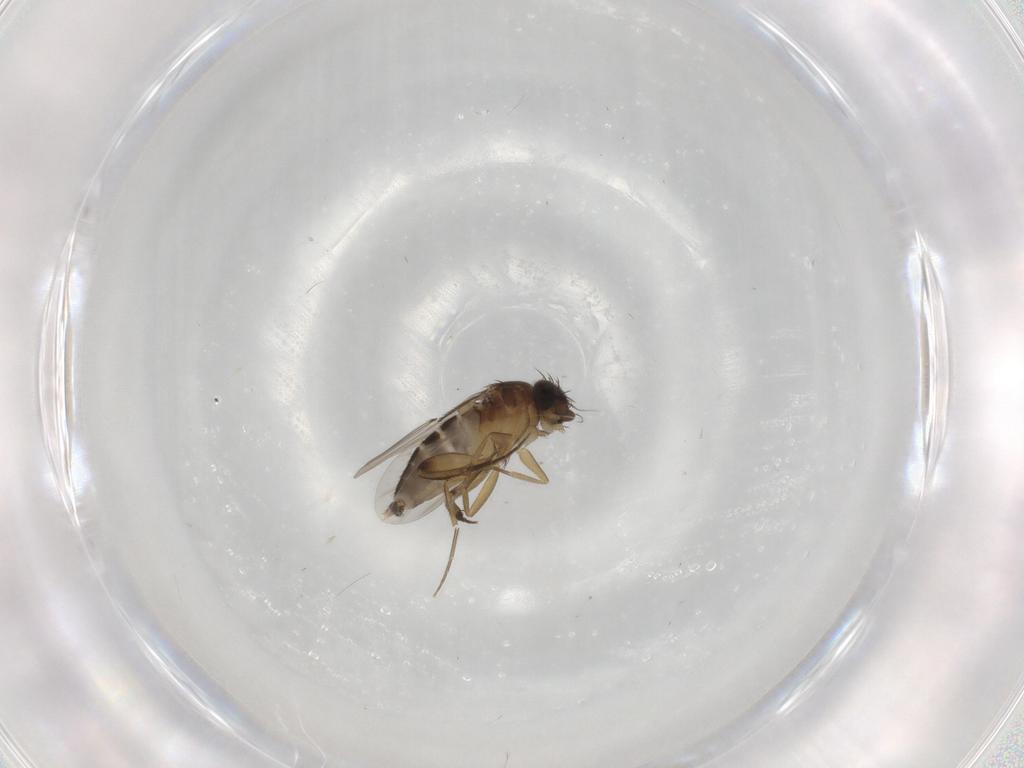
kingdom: Animalia
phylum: Arthropoda
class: Insecta
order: Diptera
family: Phoridae
